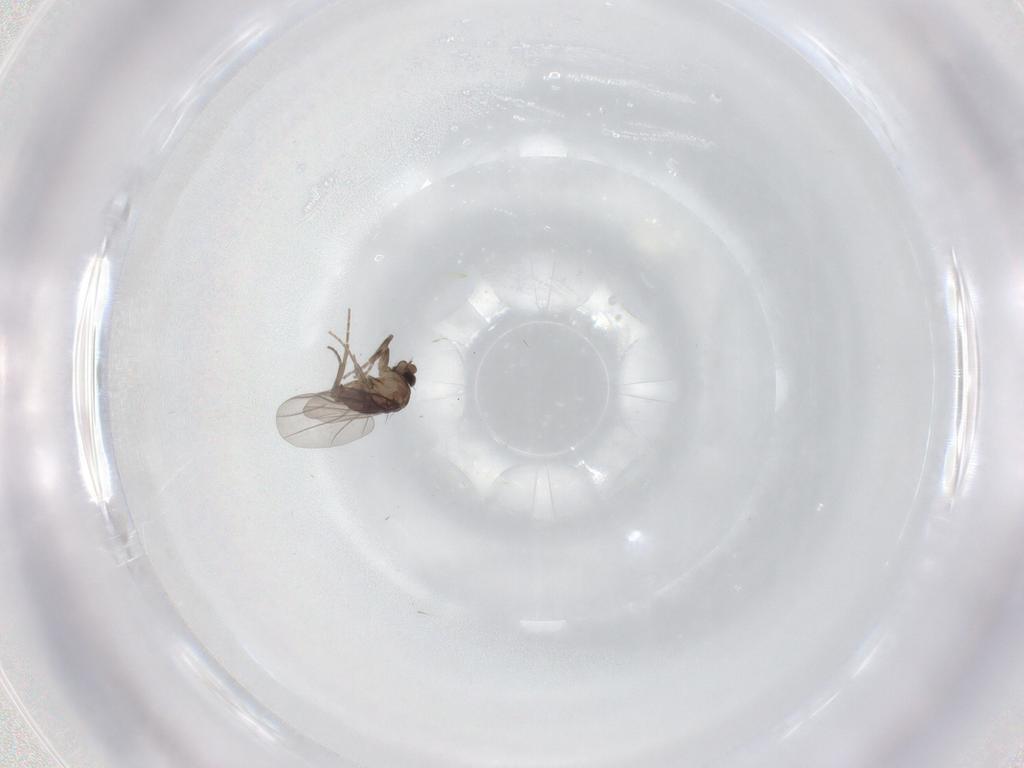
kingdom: Animalia
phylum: Arthropoda
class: Insecta
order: Diptera
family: Phoridae
